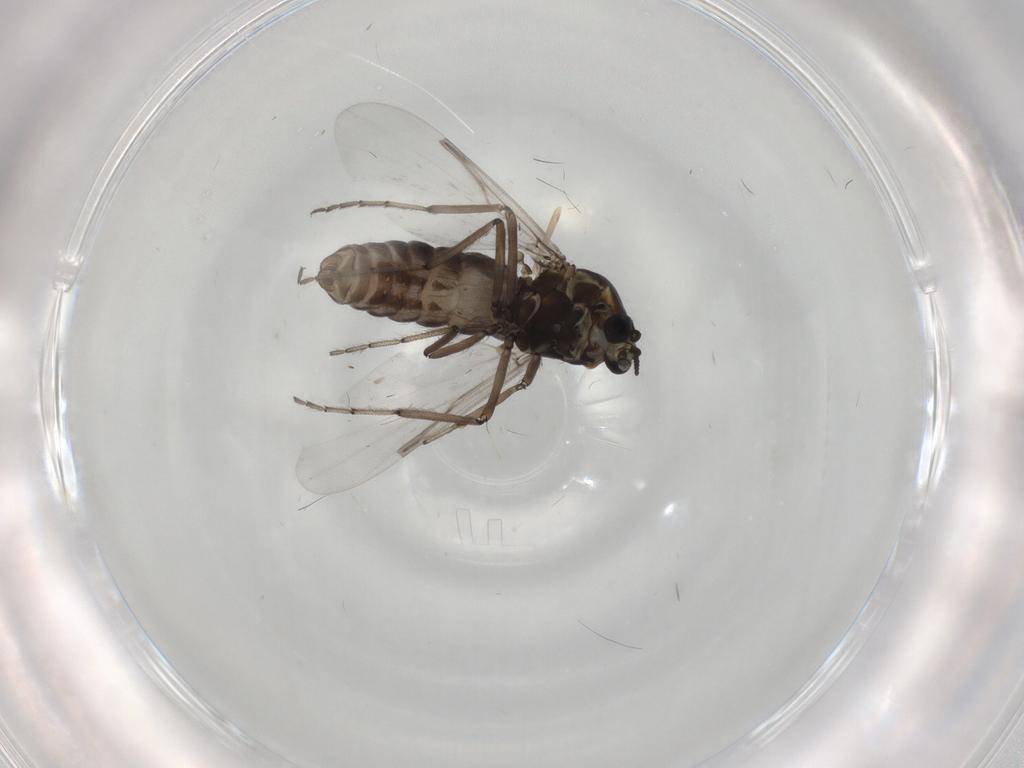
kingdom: Animalia
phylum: Arthropoda
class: Insecta
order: Diptera
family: Ceratopogonidae
